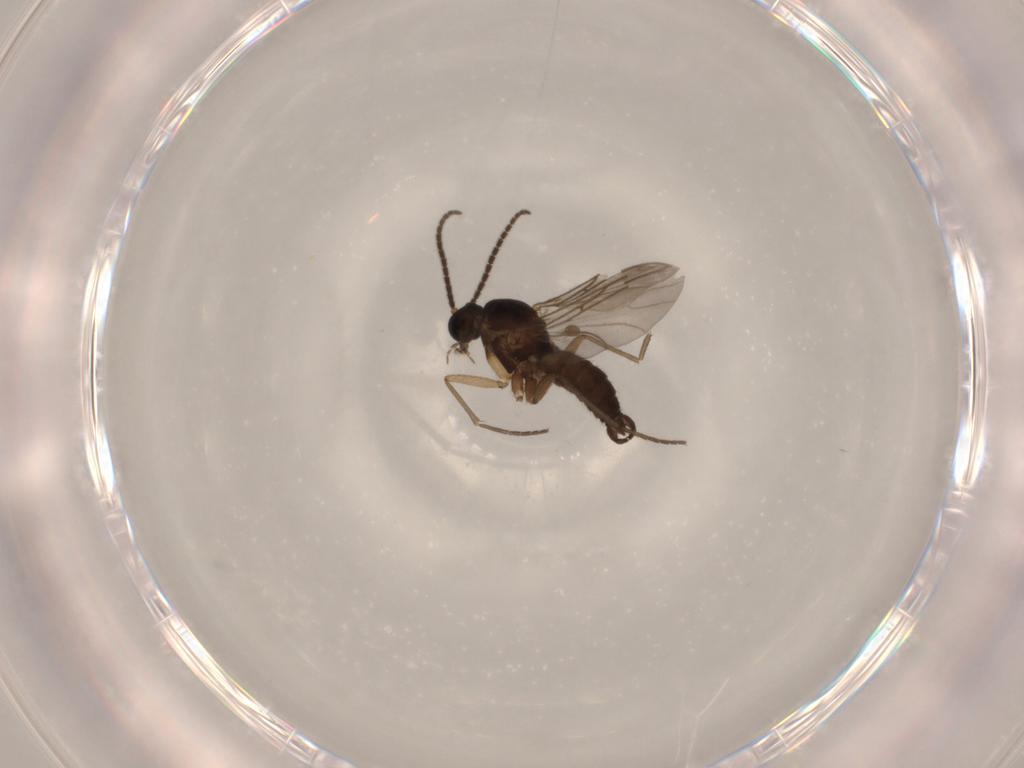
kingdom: Animalia
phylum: Arthropoda
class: Insecta
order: Diptera
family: Sciaridae
